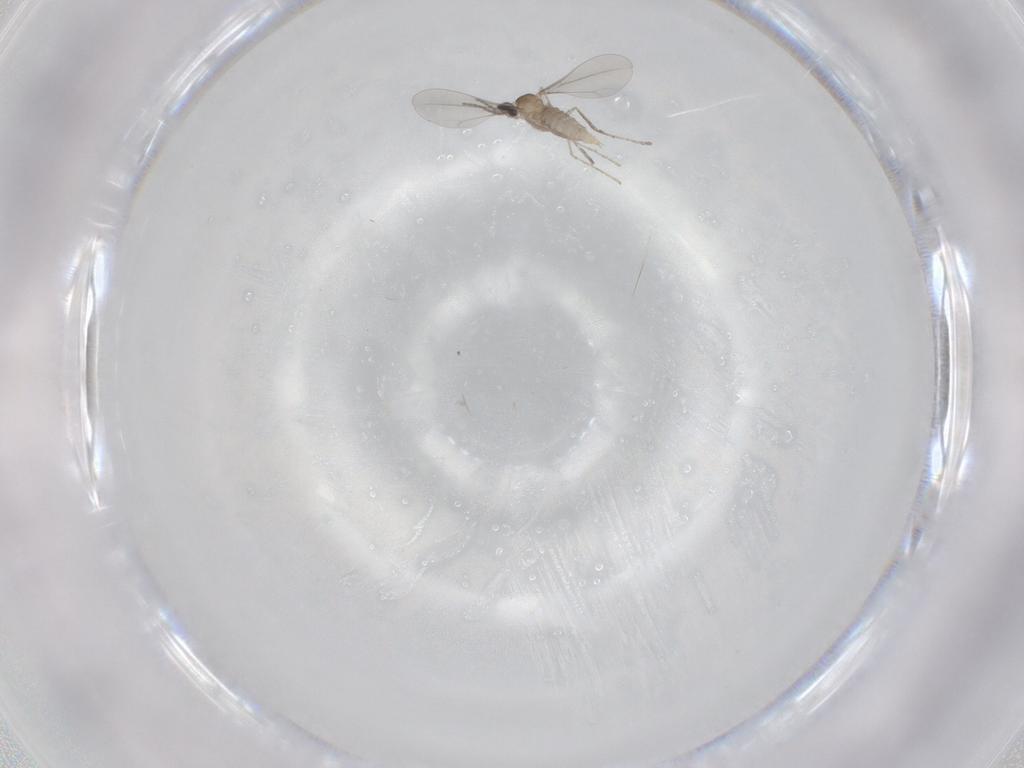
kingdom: Animalia
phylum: Arthropoda
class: Insecta
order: Diptera
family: Cecidomyiidae
